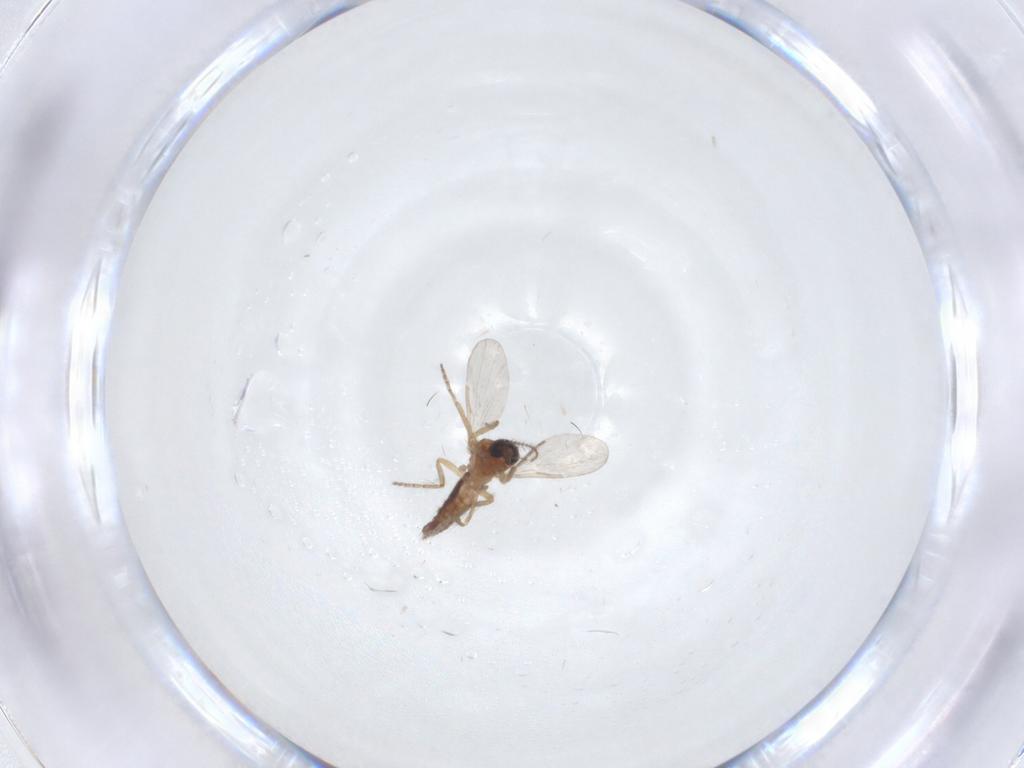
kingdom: Animalia
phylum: Arthropoda
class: Insecta
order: Diptera
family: Ceratopogonidae
